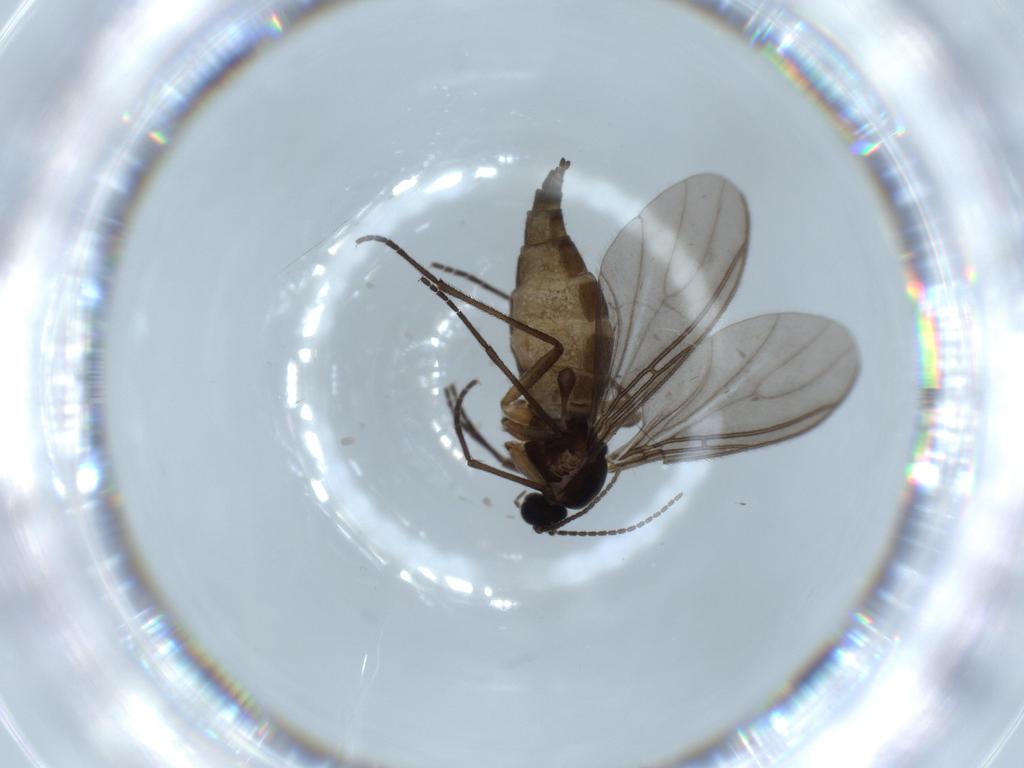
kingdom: Animalia
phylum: Arthropoda
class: Insecta
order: Diptera
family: Sciaridae
